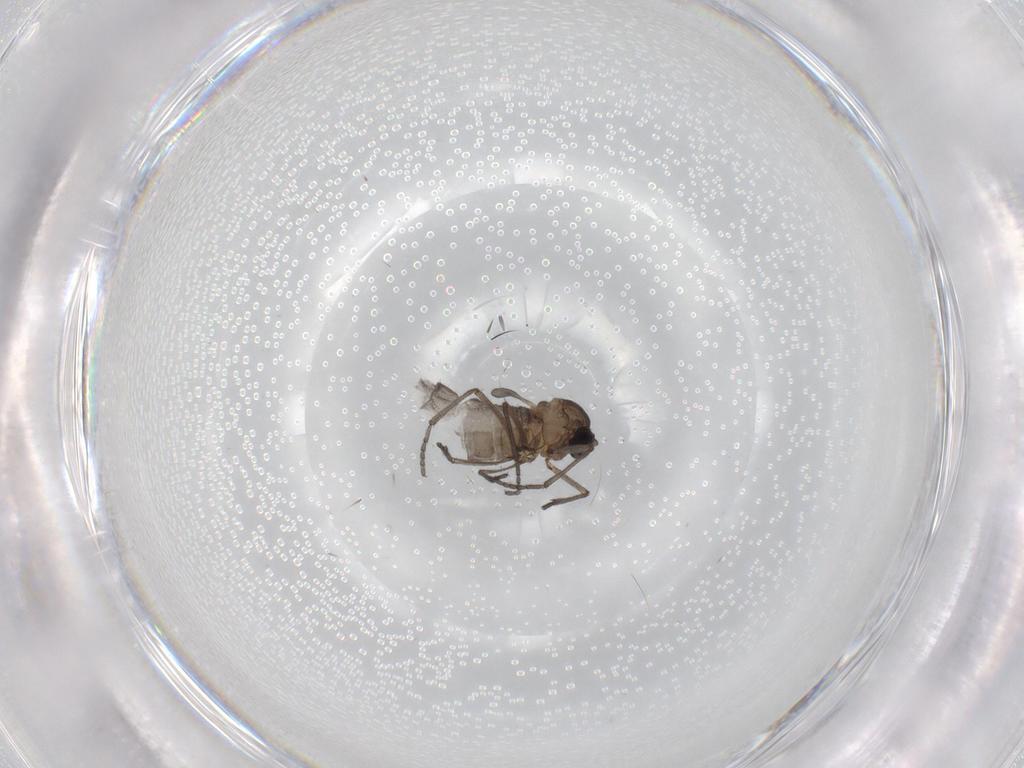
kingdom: Animalia
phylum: Arthropoda
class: Insecta
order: Diptera
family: Sciaridae
